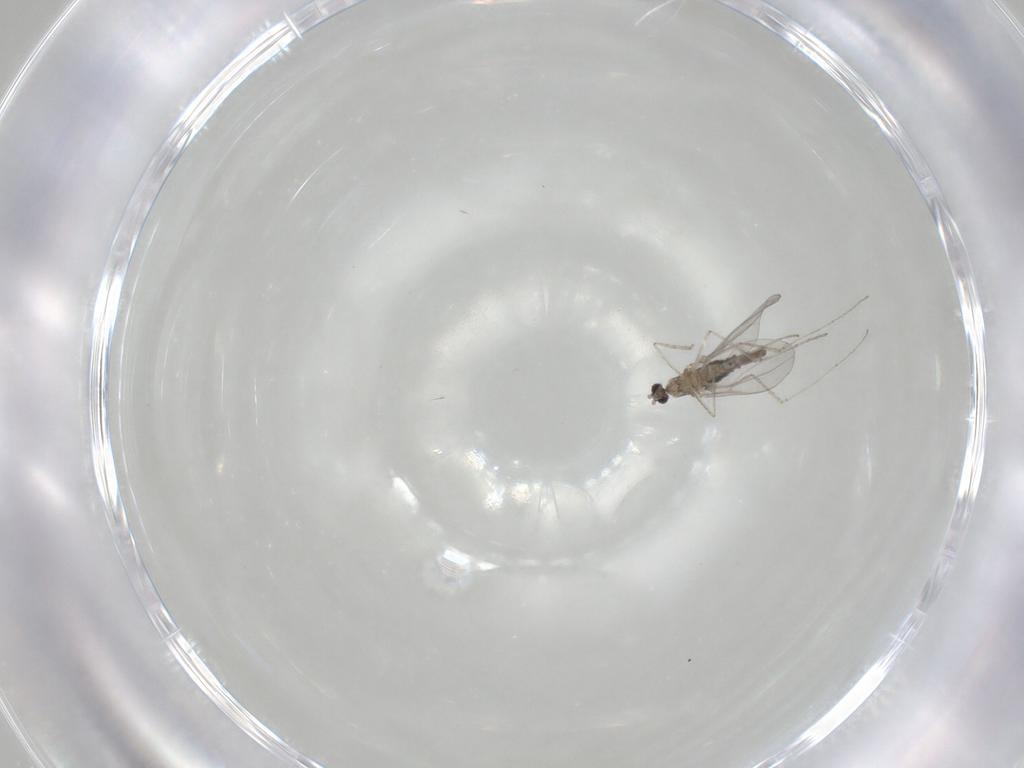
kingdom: Animalia
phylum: Arthropoda
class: Insecta
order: Diptera
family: Cecidomyiidae
